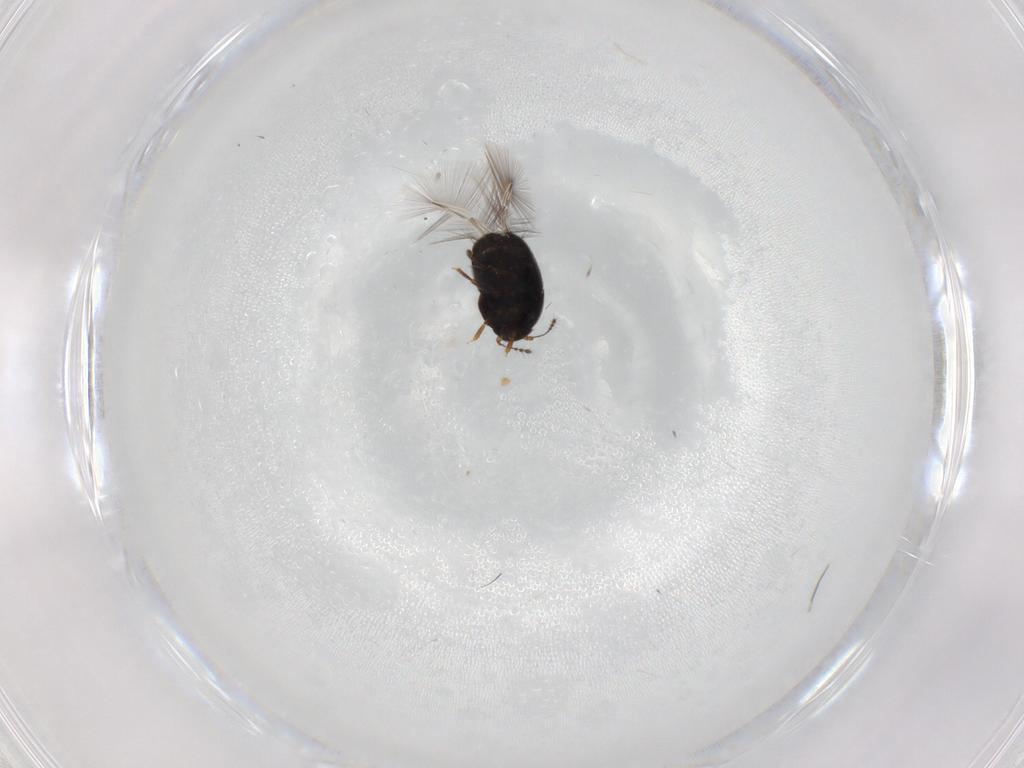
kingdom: Animalia
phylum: Arthropoda
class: Insecta
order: Coleoptera
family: Ptiliidae
